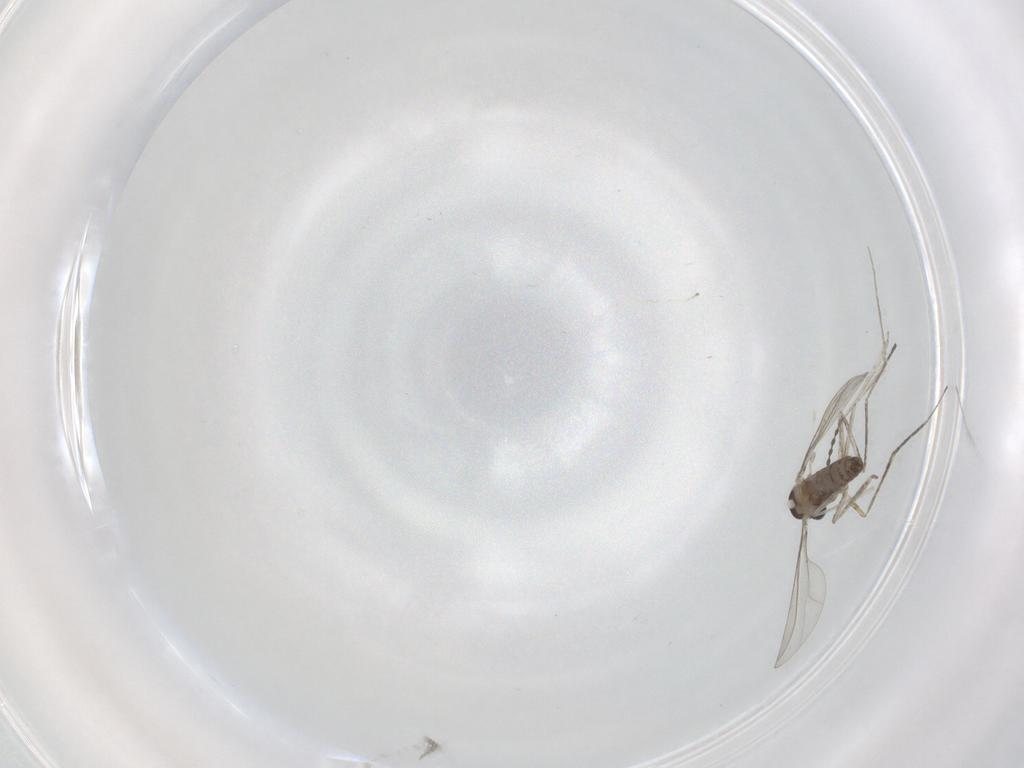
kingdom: Animalia
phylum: Arthropoda
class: Insecta
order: Diptera
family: Cecidomyiidae
